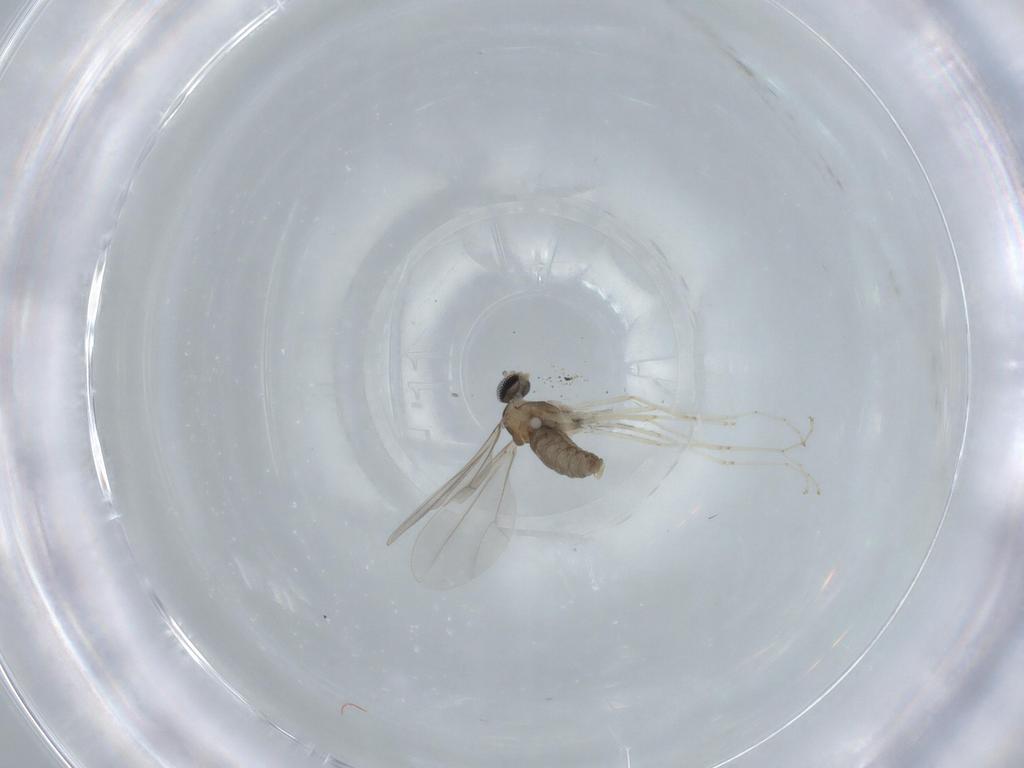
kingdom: Animalia
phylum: Arthropoda
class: Insecta
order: Diptera
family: Cecidomyiidae
